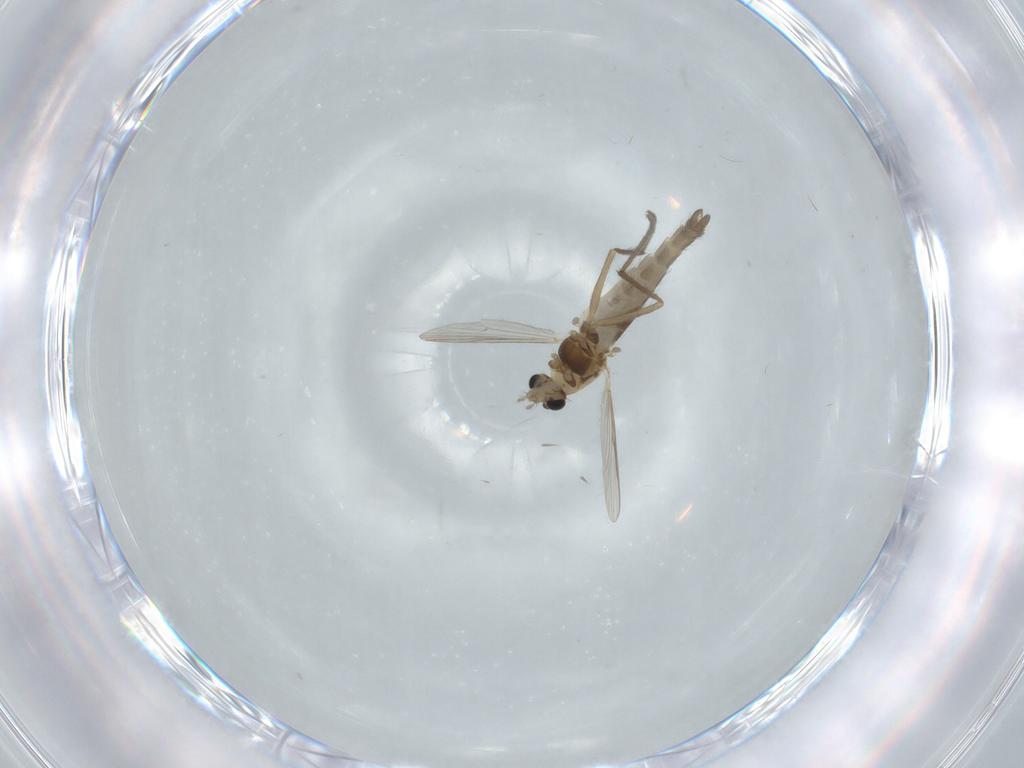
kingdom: Animalia
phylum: Arthropoda
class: Insecta
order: Diptera
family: Chironomidae
